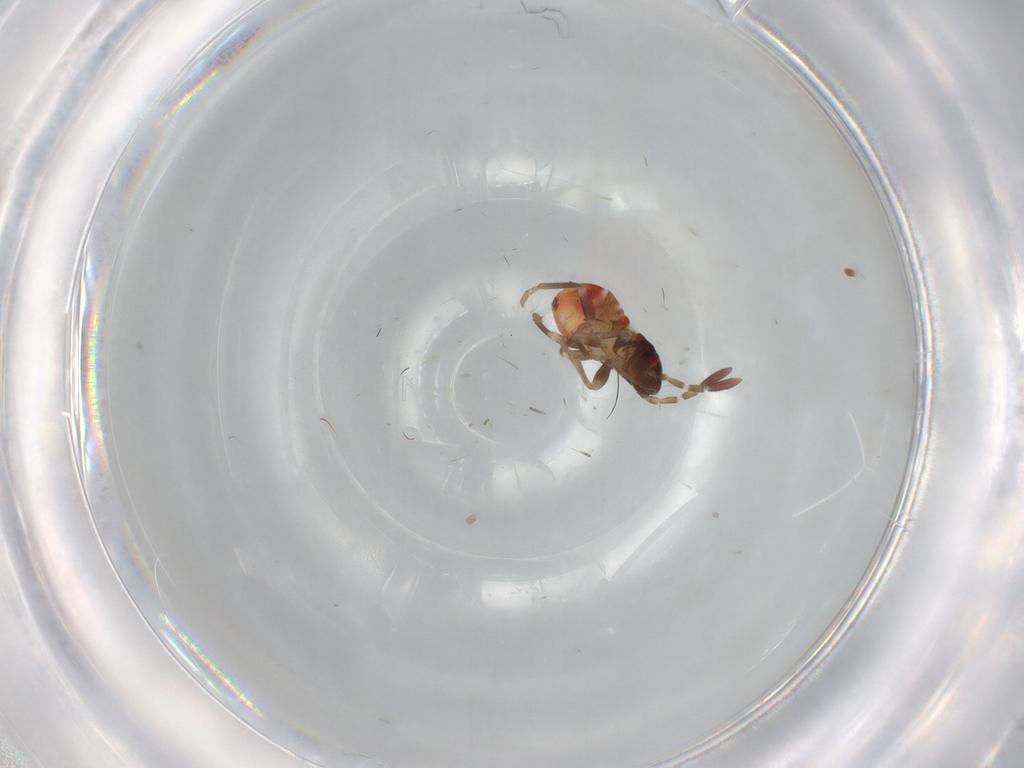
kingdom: Animalia
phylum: Arthropoda
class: Insecta
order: Hemiptera
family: Rhyparochromidae
